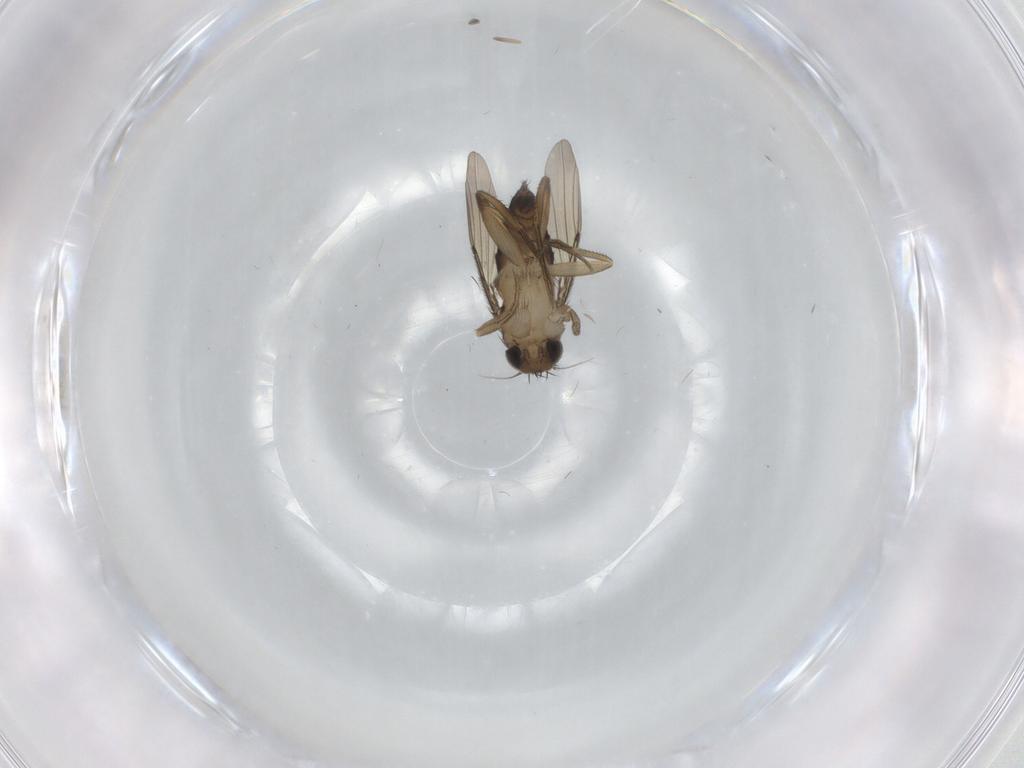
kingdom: Animalia
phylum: Arthropoda
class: Insecta
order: Diptera
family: Phoridae
